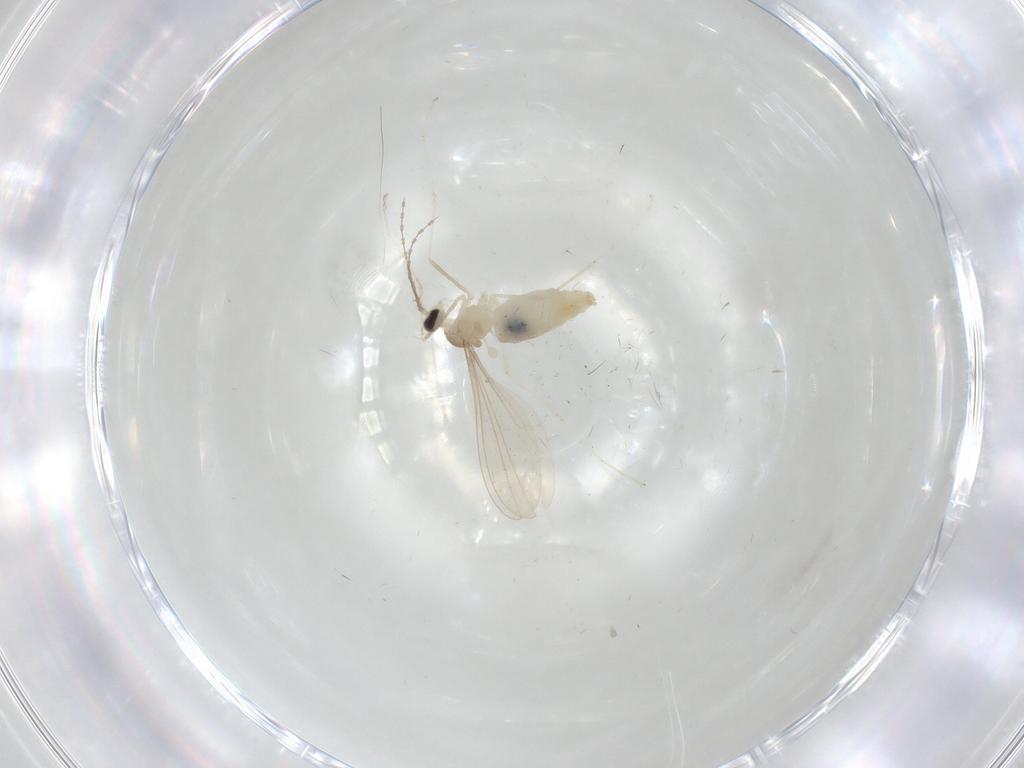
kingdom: Animalia
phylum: Arthropoda
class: Insecta
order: Diptera
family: Cecidomyiidae
